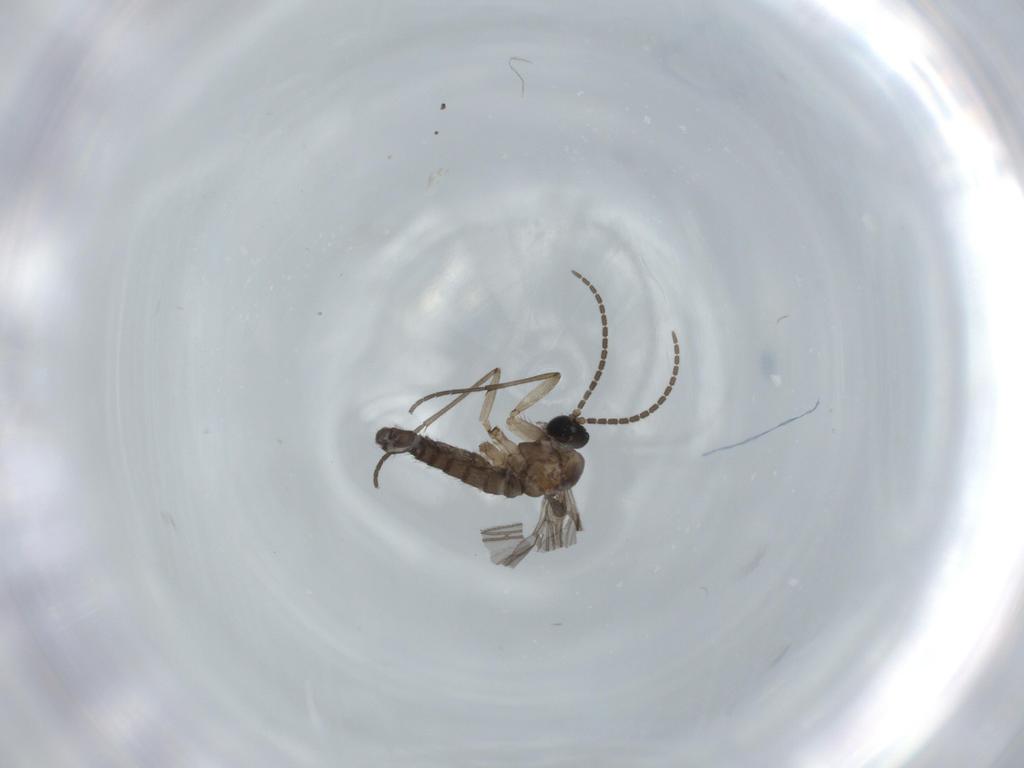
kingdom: Animalia
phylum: Arthropoda
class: Insecta
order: Diptera
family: Sciaridae
